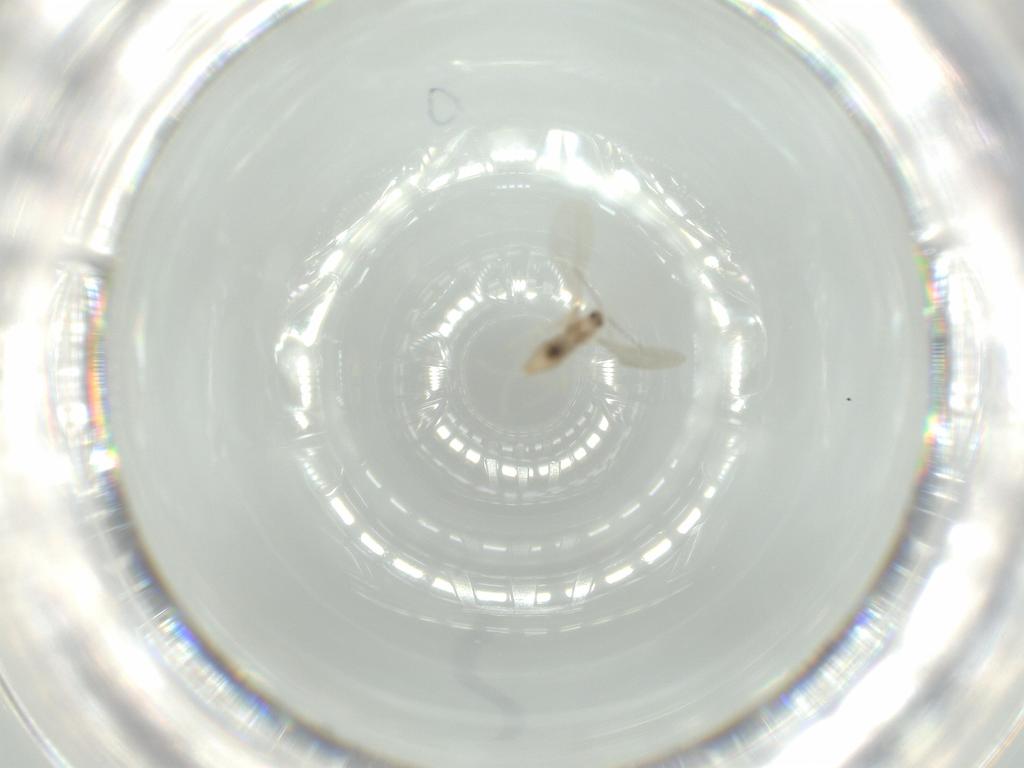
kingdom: Animalia
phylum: Arthropoda
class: Insecta
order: Diptera
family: Cecidomyiidae
